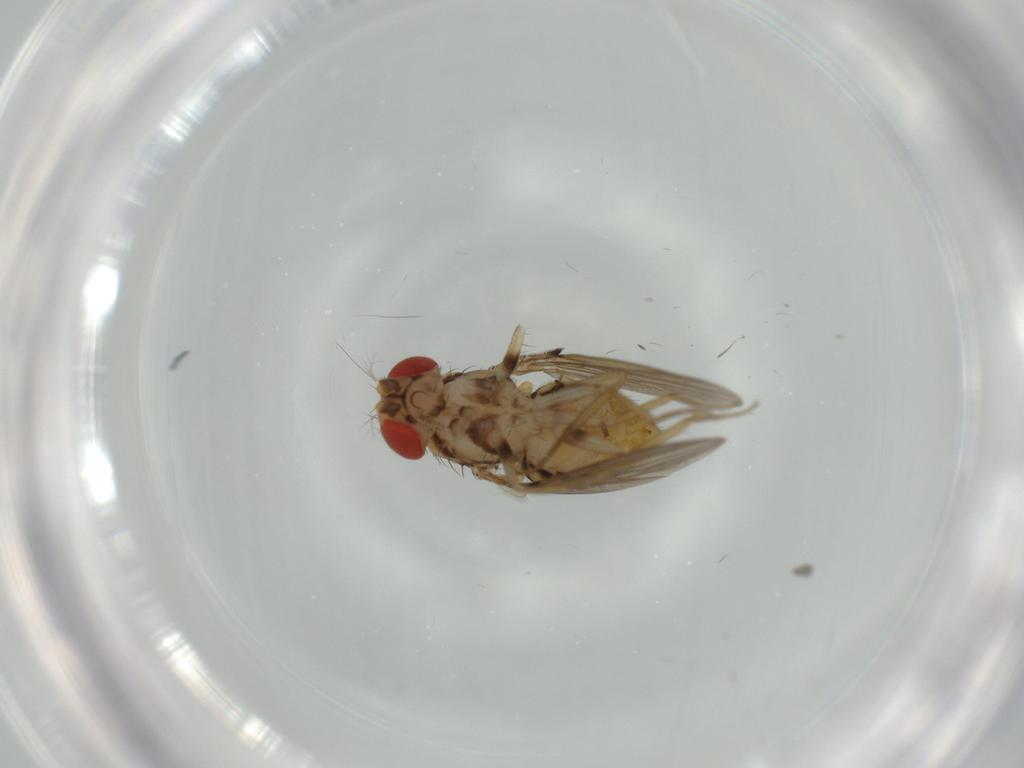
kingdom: Animalia
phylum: Arthropoda
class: Insecta
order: Diptera
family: Drosophilidae
